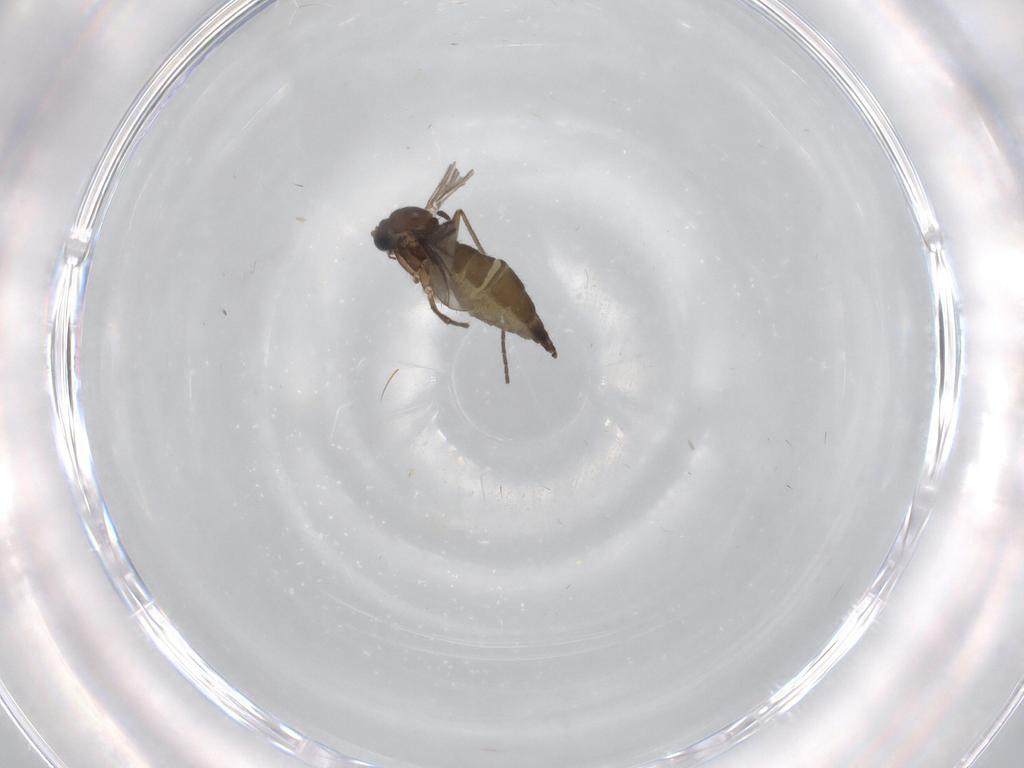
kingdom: Animalia
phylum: Arthropoda
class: Insecta
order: Diptera
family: Sciaridae
